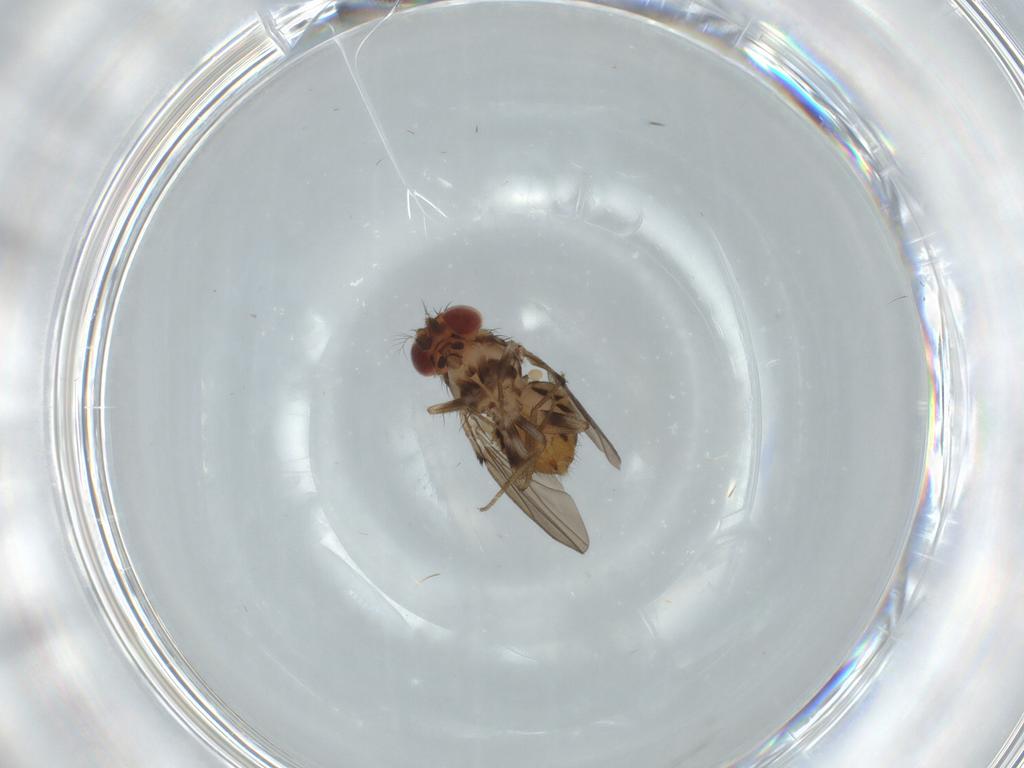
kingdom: Animalia
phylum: Arthropoda
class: Insecta
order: Diptera
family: Drosophilidae
